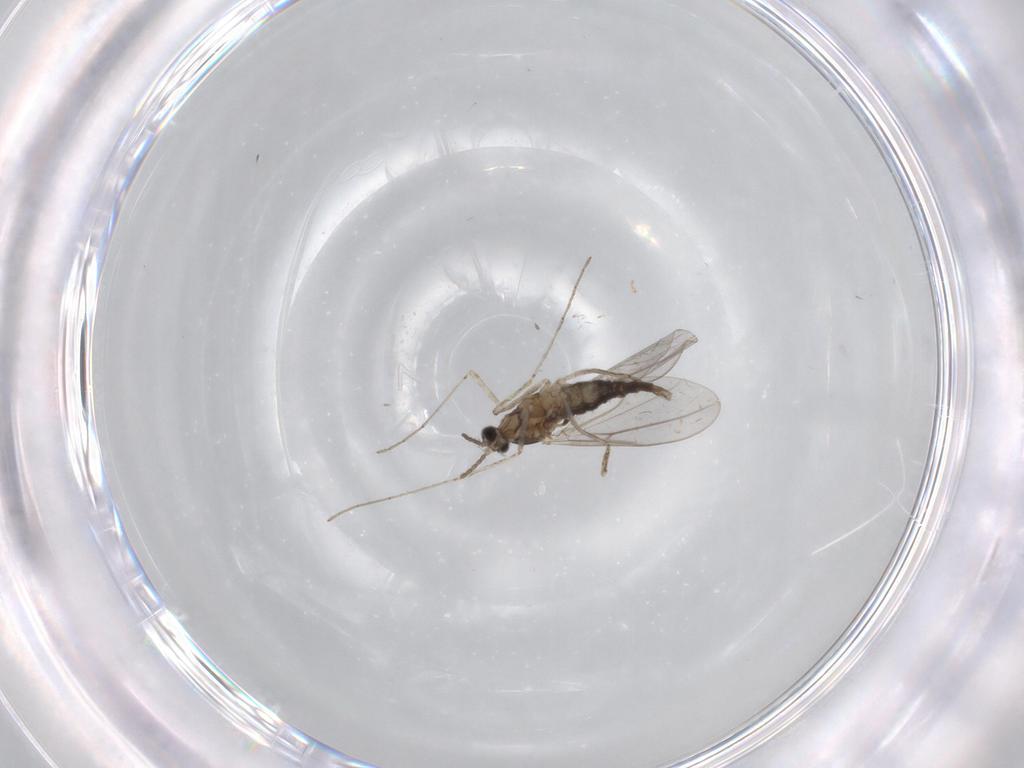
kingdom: Animalia
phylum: Arthropoda
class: Insecta
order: Diptera
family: Cecidomyiidae
